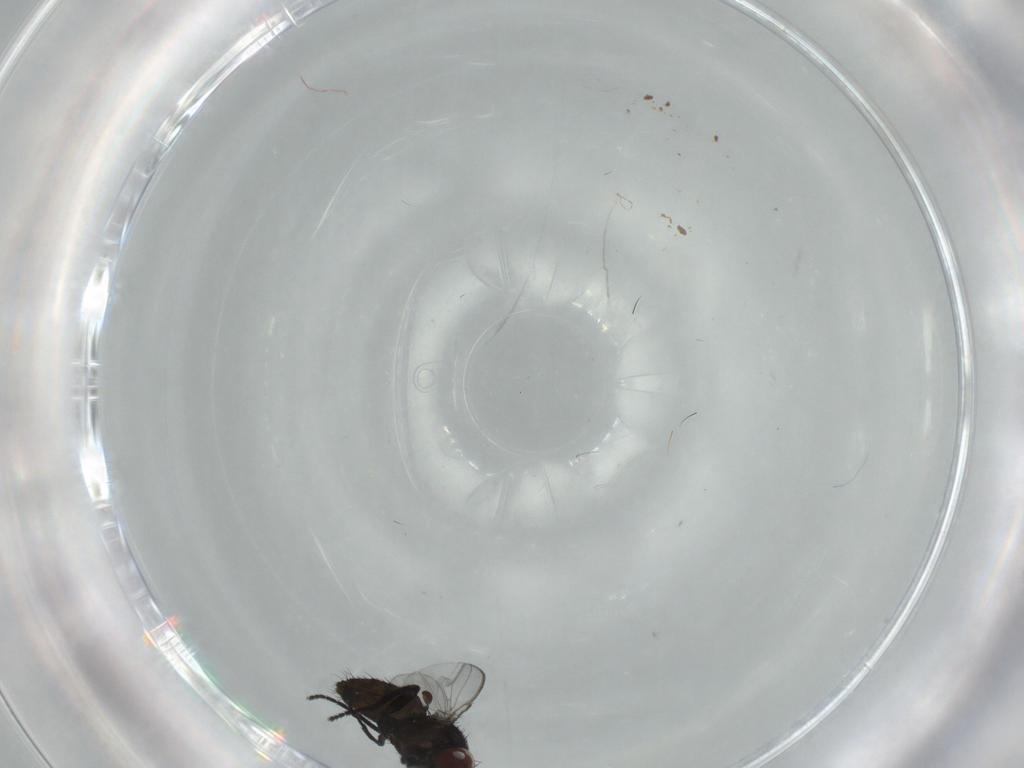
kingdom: Animalia
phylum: Arthropoda
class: Insecta
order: Diptera
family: Milichiidae
